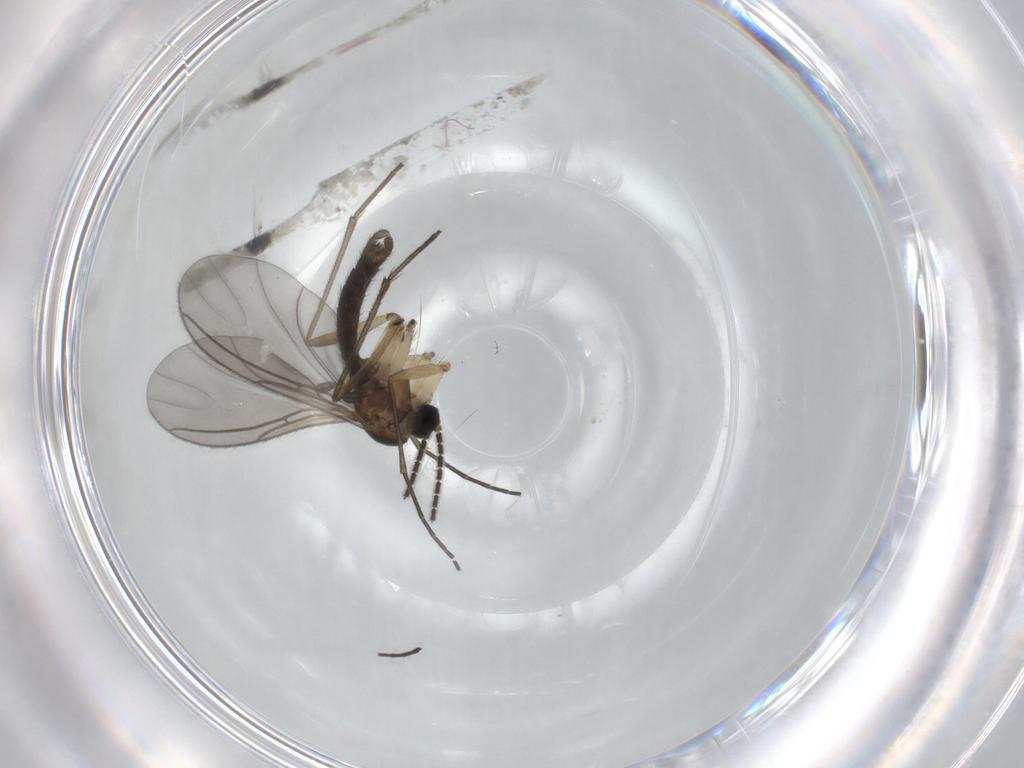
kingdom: Animalia
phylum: Arthropoda
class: Insecta
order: Diptera
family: Sciaridae
